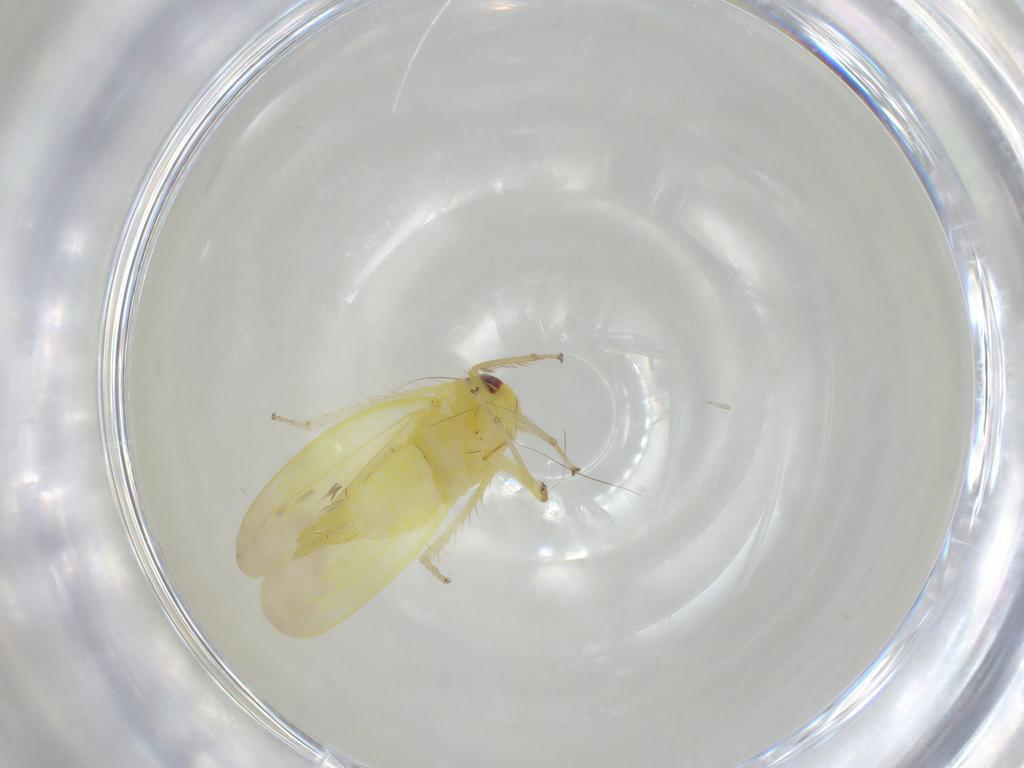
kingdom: Animalia
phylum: Arthropoda
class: Insecta
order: Hemiptera
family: Cicadellidae
